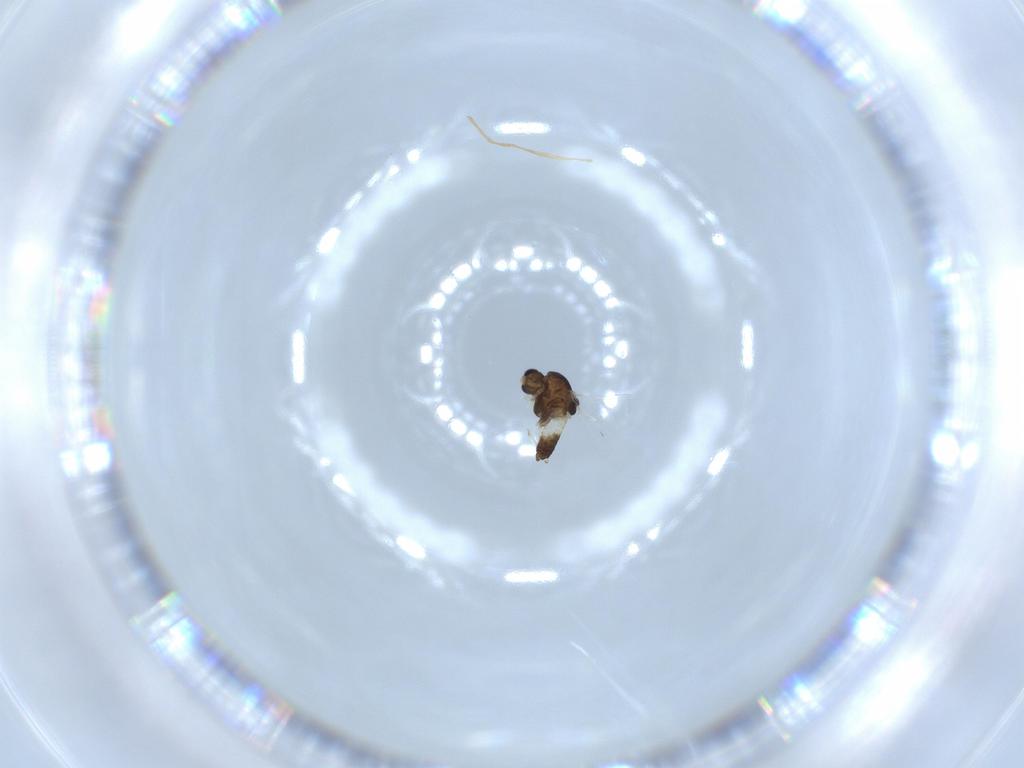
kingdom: Animalia
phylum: Arthropoda
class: Insecta
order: Diptera
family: Chironomidae
